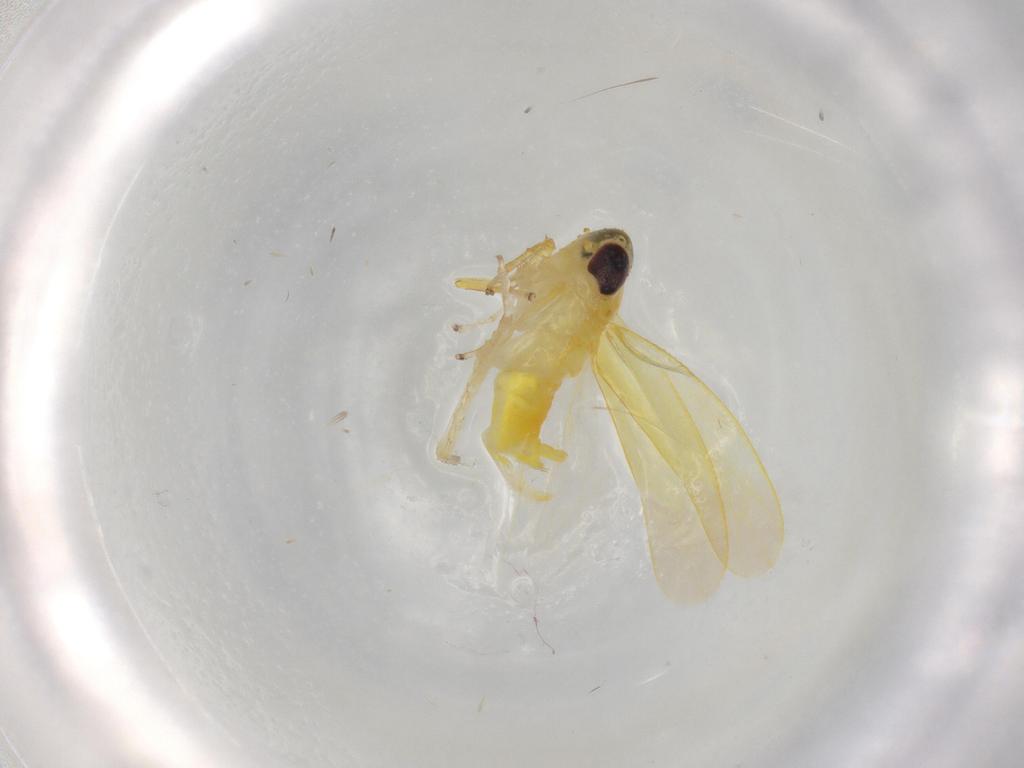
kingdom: Animalia
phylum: Arthropoda
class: Insecta
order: Hemiptera
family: Cicadellidae
